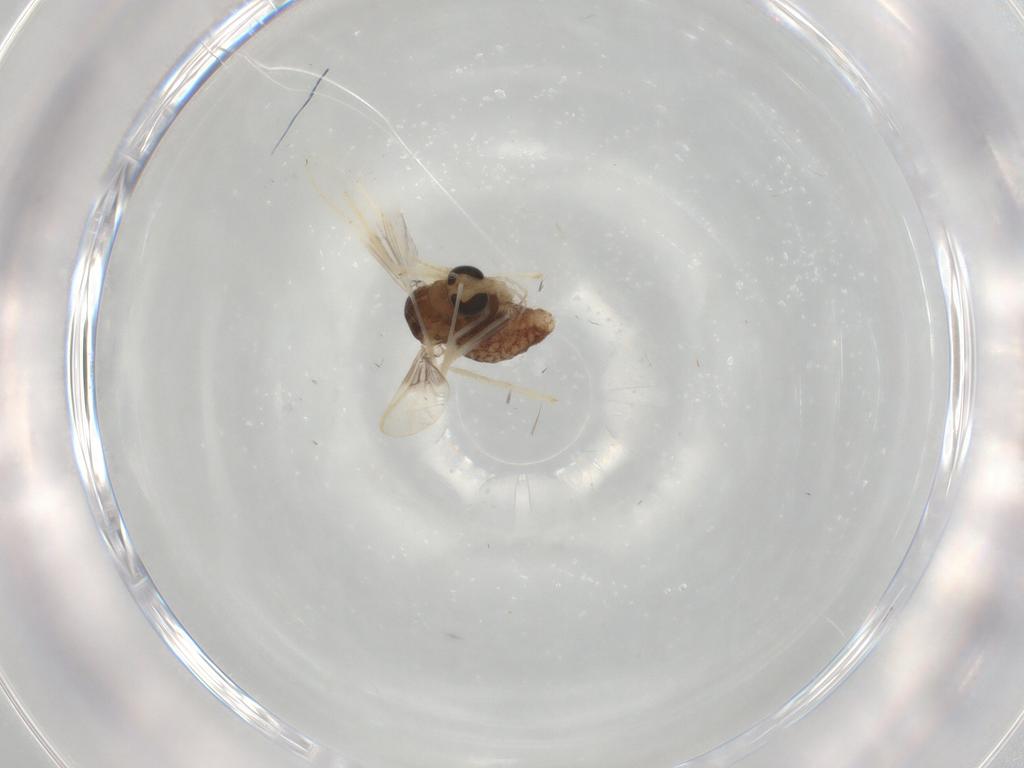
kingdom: Animalia
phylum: Arthropoda
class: Insecta
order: Diptera
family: Chironomidae
